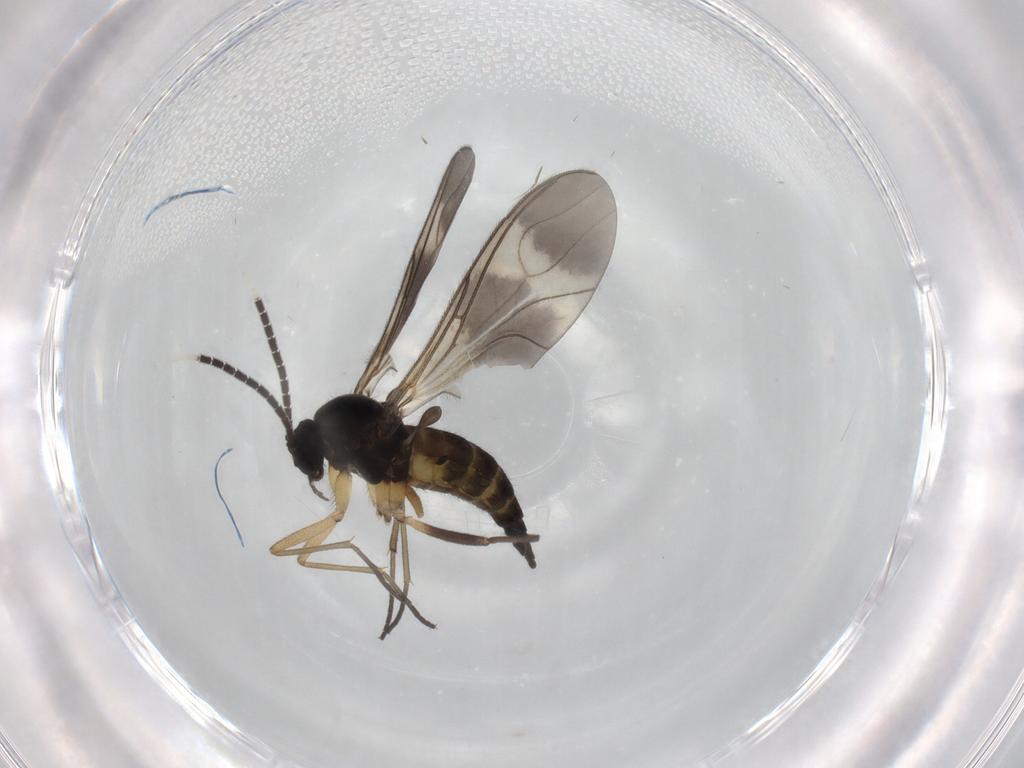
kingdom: Animalia
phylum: Arthropoda
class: Insecta
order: Diptera
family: Sciaridae
